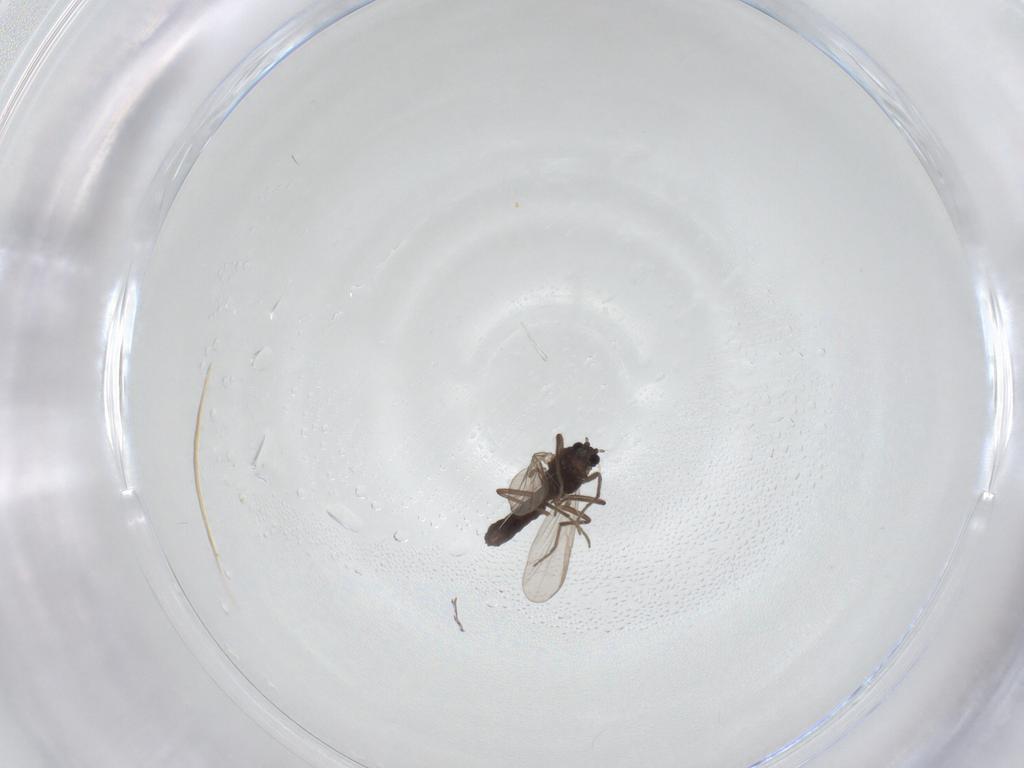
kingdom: Animalia
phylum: Arthropoda
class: Insecta
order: Diptera
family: Chironomidae
